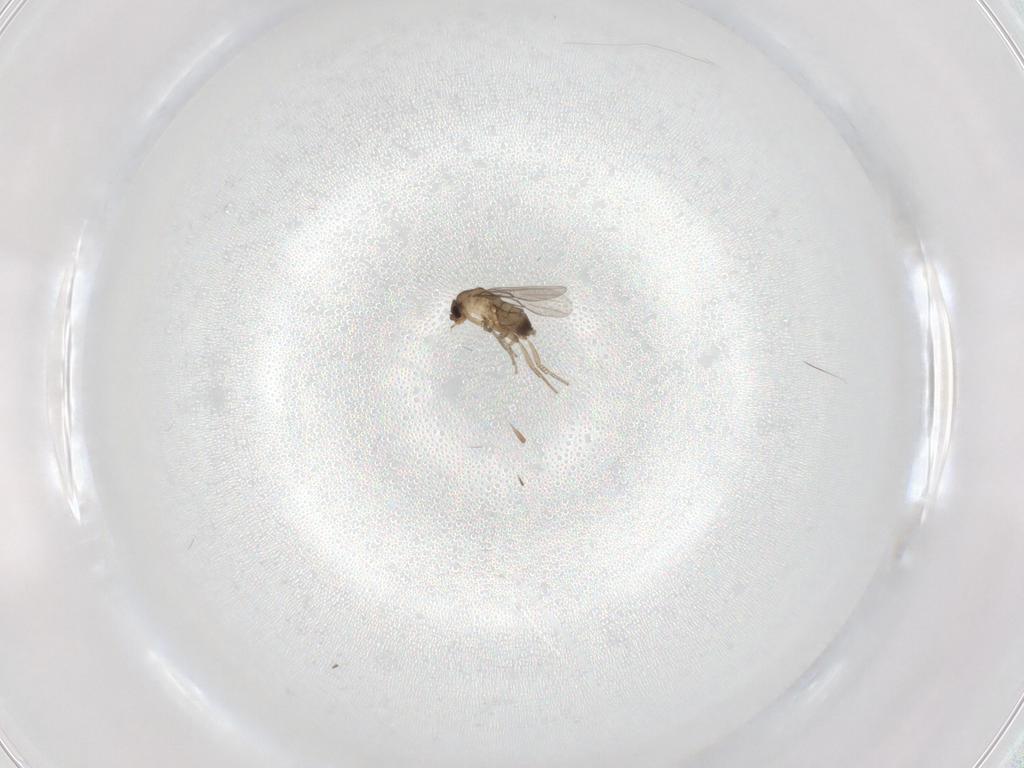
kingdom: Animalia
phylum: Arthropoda
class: Insecta
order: Diptera
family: Phoridae
